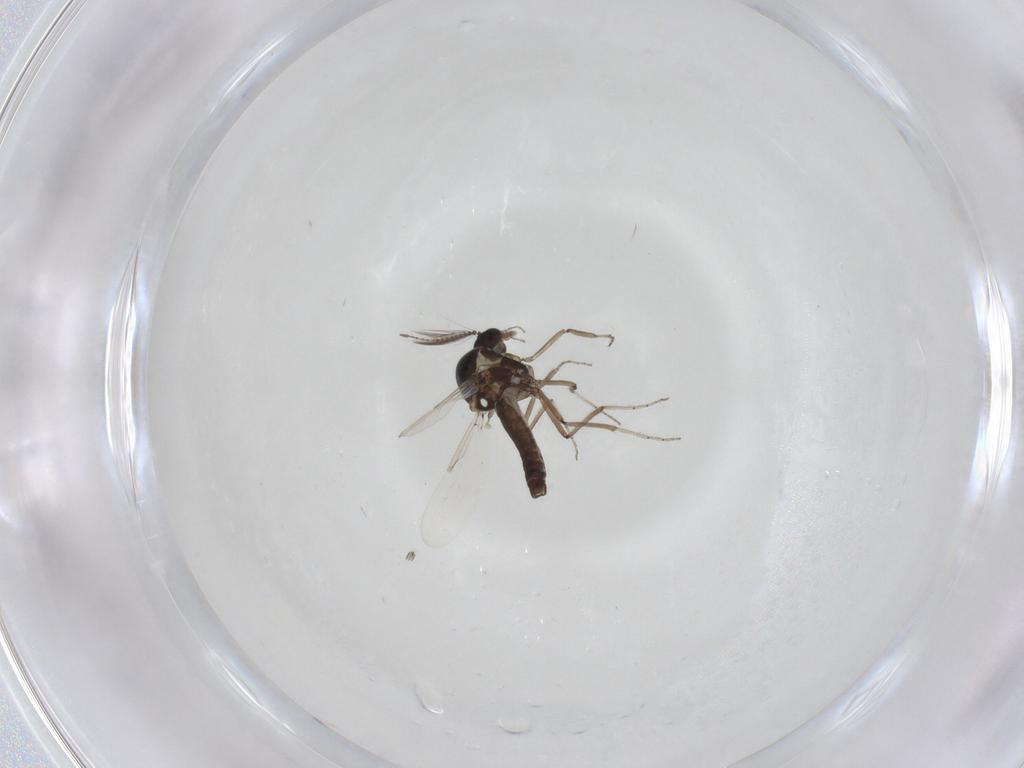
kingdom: Animalia
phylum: Arthropoda
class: Insecta
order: Diptera
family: Ceratopogonidae
